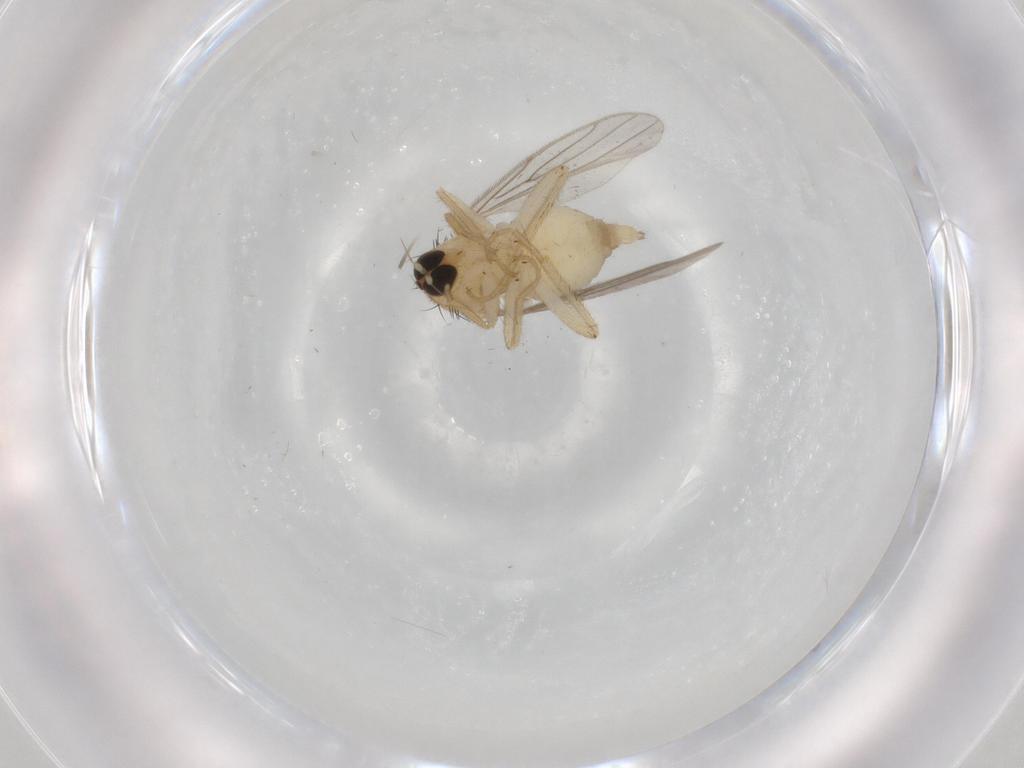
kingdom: Animalia
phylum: Arthropoda
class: Insecta
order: Diptera
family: Hybotidae
